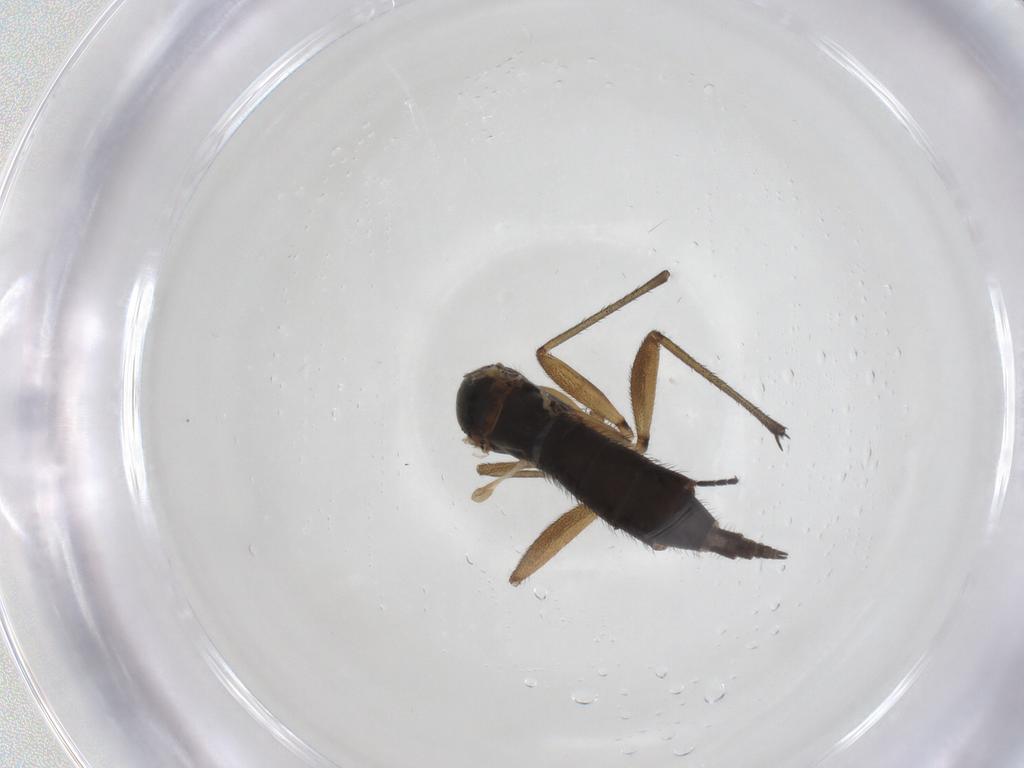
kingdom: Animalia
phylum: Arthropoda
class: Insecta
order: Diptera
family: Sciaridae
